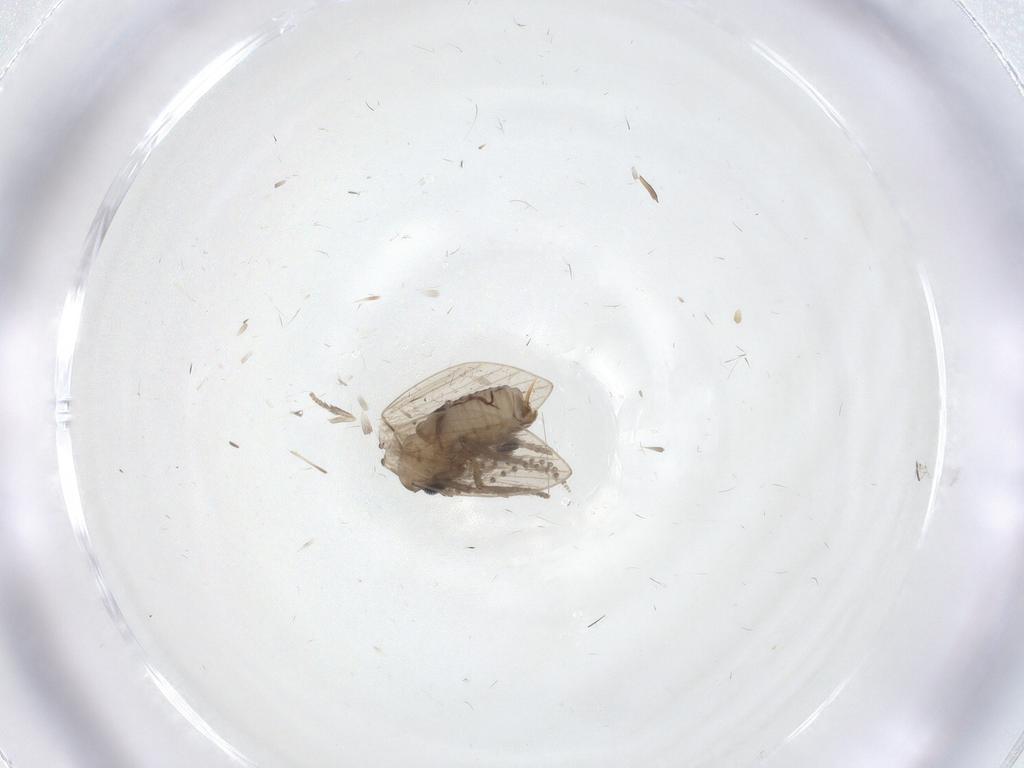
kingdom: Animalia
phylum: Arthropoda
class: Insecta
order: Diptera
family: Psychodidae
